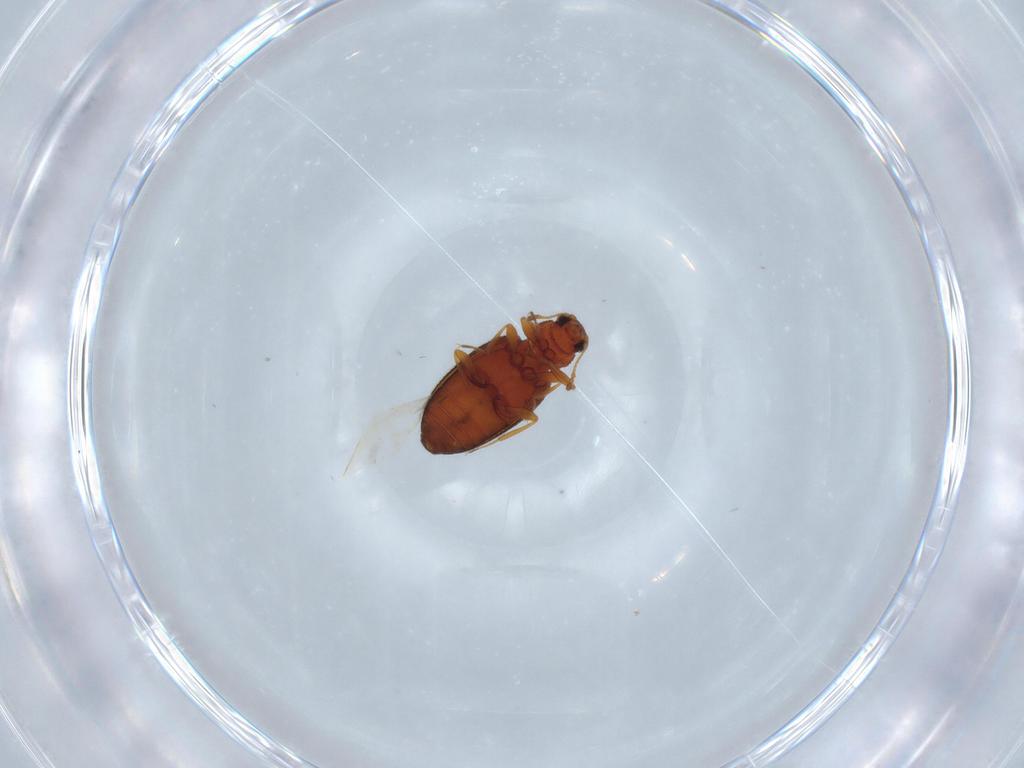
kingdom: Animalia
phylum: Arthropoda
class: Insecta
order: Coleoptera
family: Latridiidae
